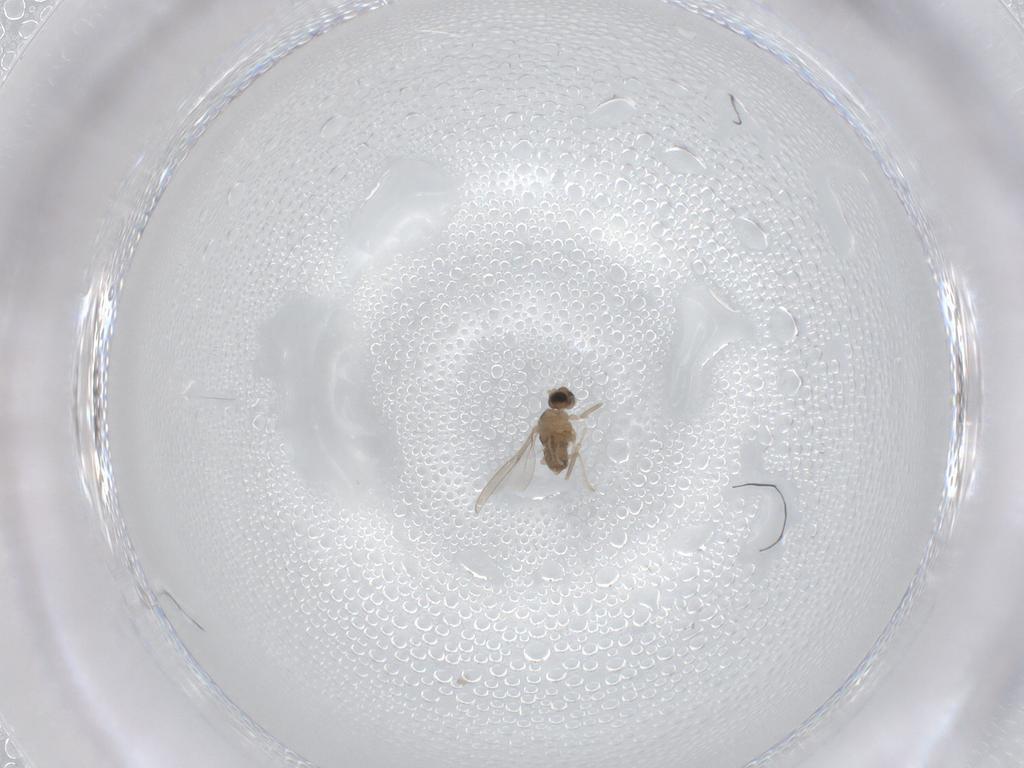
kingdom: Animalia
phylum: Arthropoda
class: Insecta
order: Diptera
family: Cecidomyiidae
